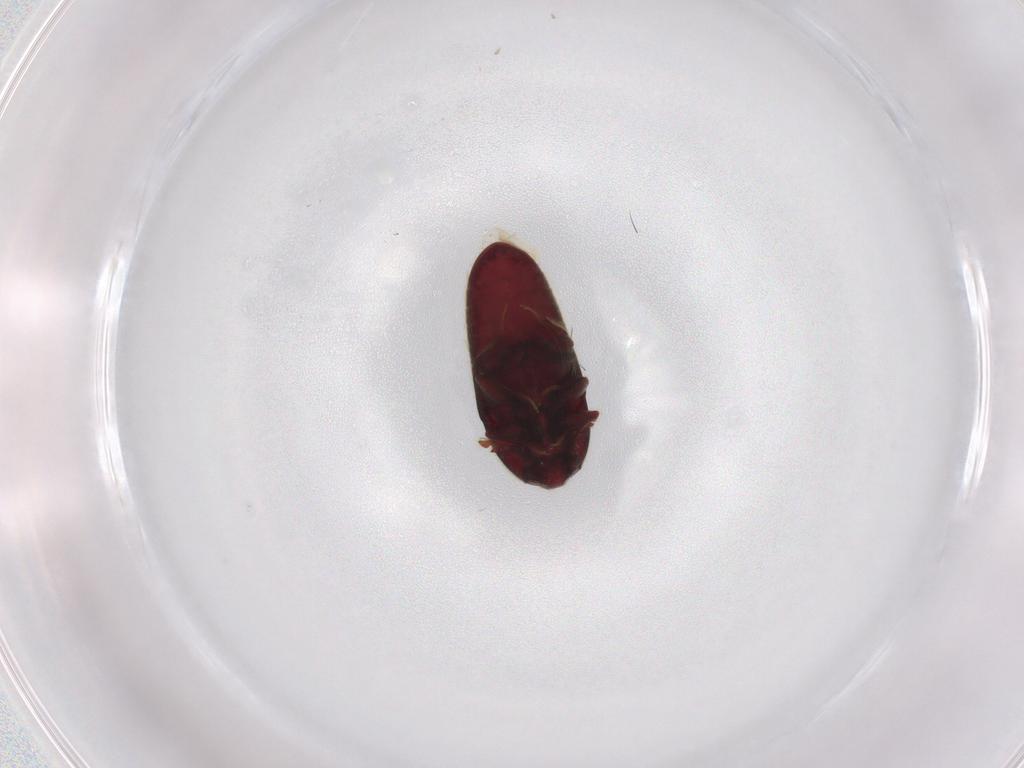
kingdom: Animalia
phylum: Arthropoda
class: Insecta
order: Coleoptera
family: Throscidae
